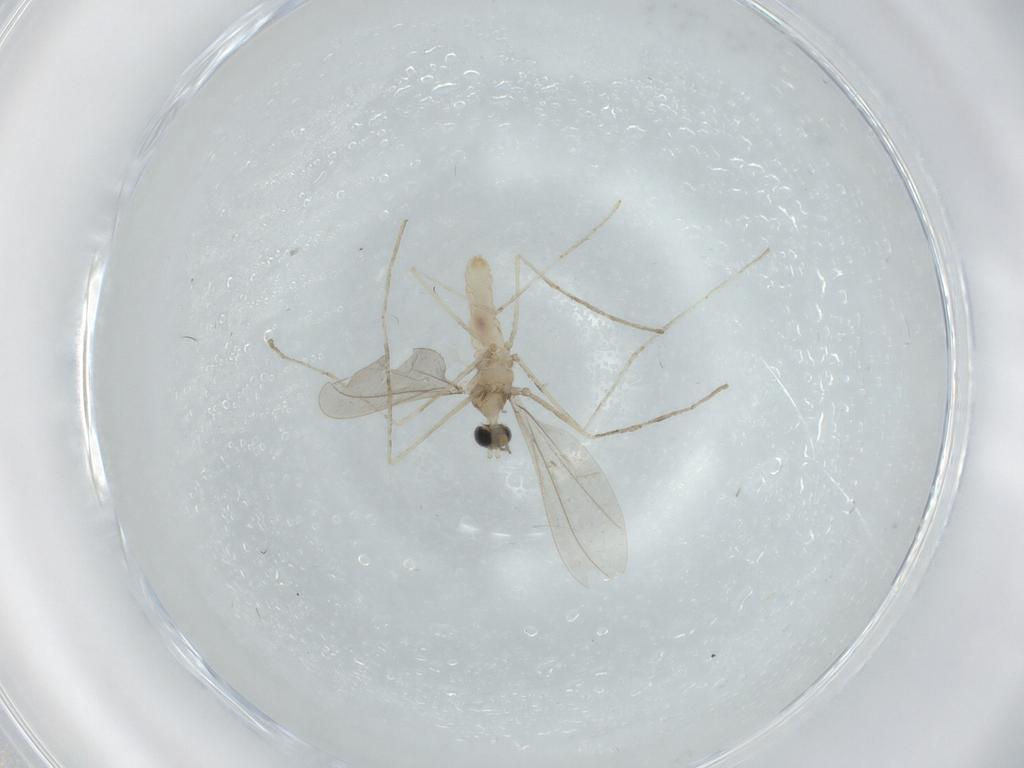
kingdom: Animalia
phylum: Arthropoda
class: Insecta
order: Diptera
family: Cecidomyiidae
